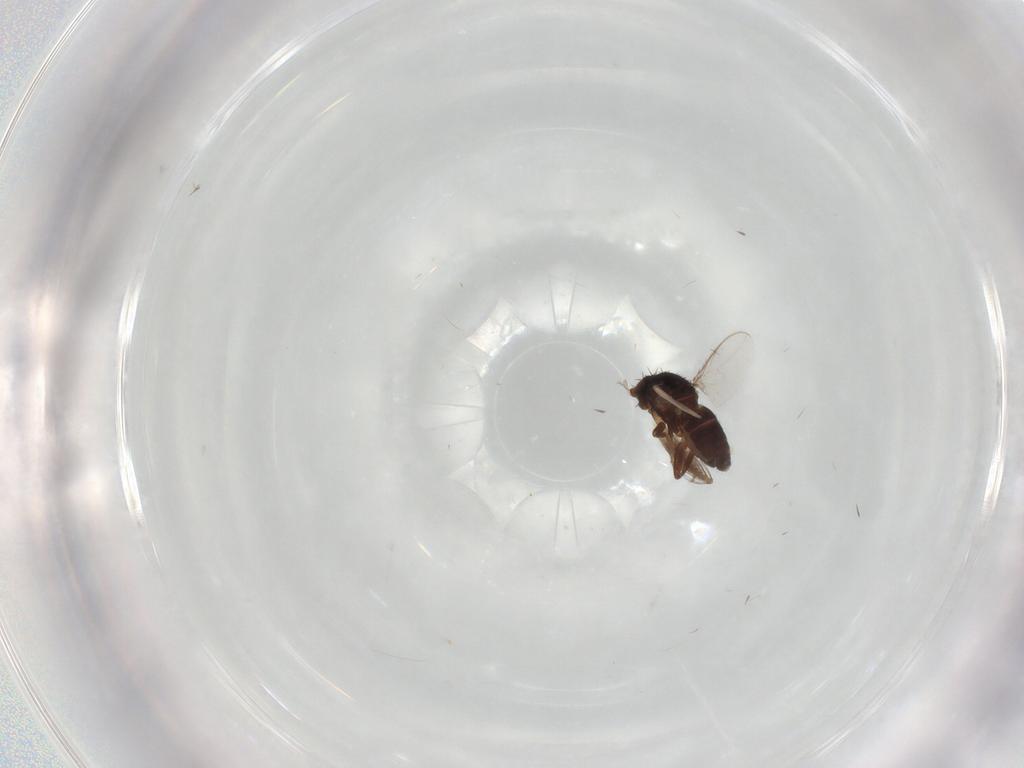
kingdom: Animalia
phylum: Arthropoda
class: Insecta
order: Diptera
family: Sphaeroceridae
